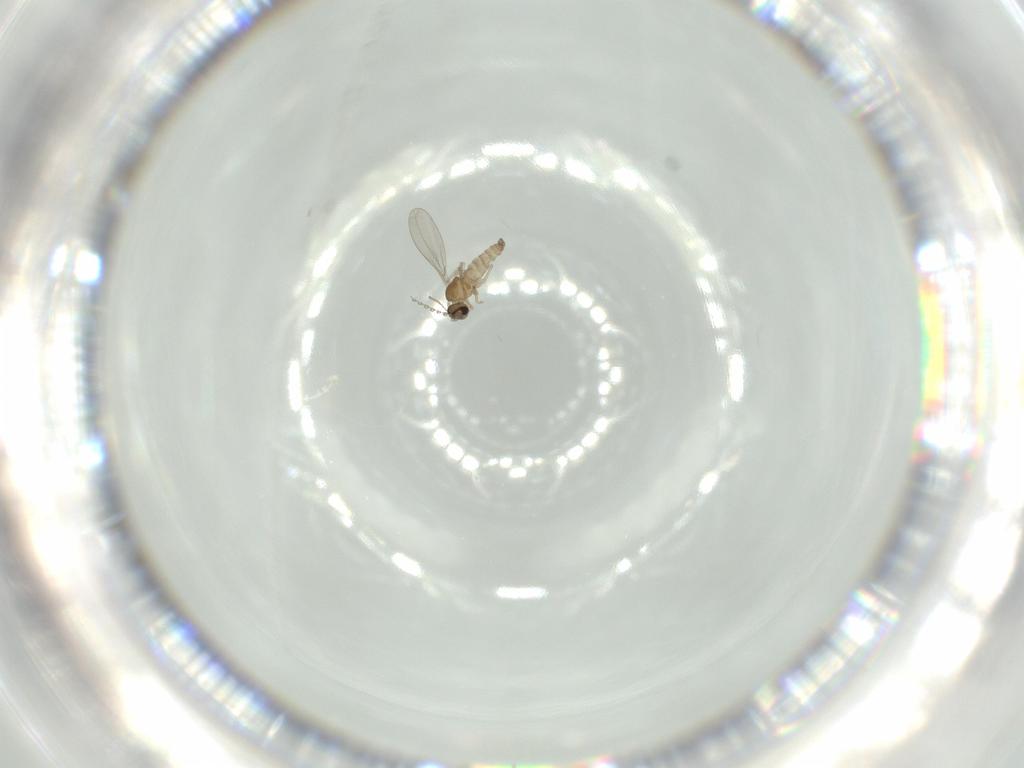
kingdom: Animalia
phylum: Arthropoda
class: Insecta
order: Diptera
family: Cecidomyiidae
